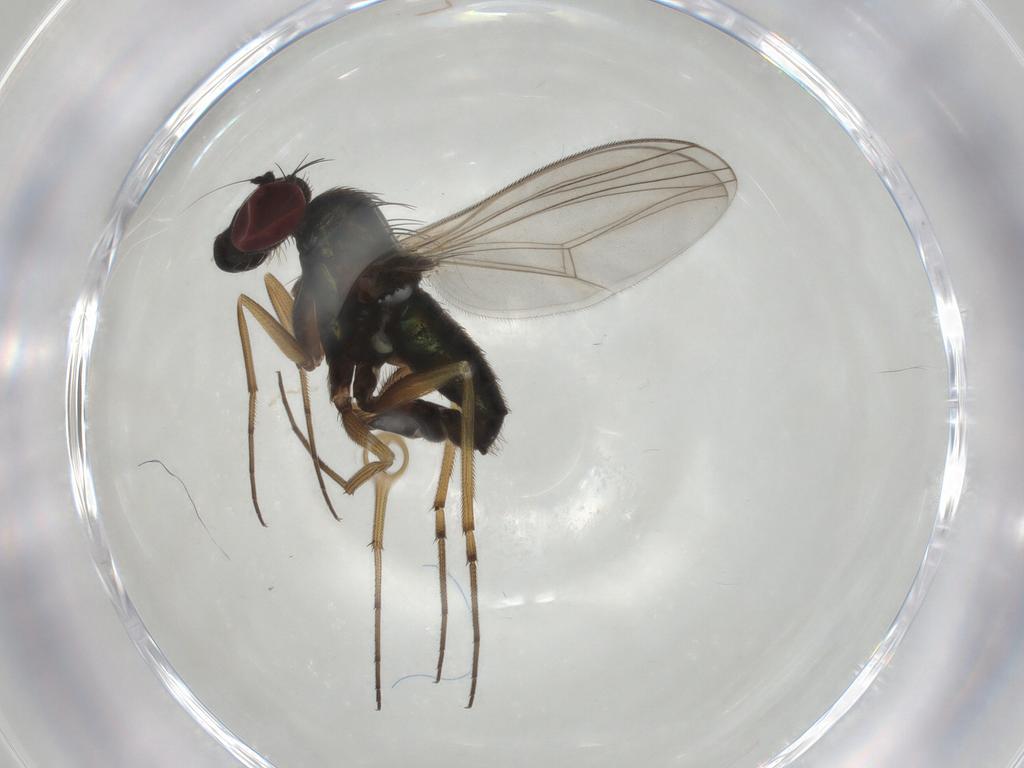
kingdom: Animalia
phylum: Arthropoda
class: Insecta
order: Diptera
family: Dolichopodidae
